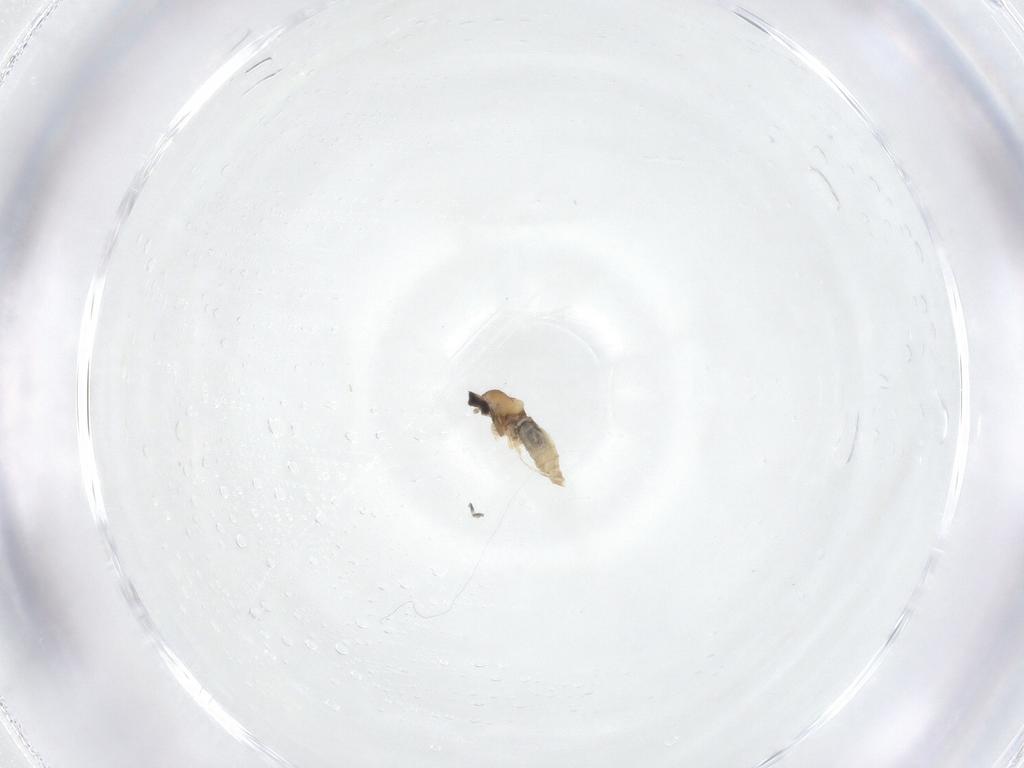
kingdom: Animalia
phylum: Arthropoda
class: Insecta
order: Diptera
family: Cecidomyiidae
